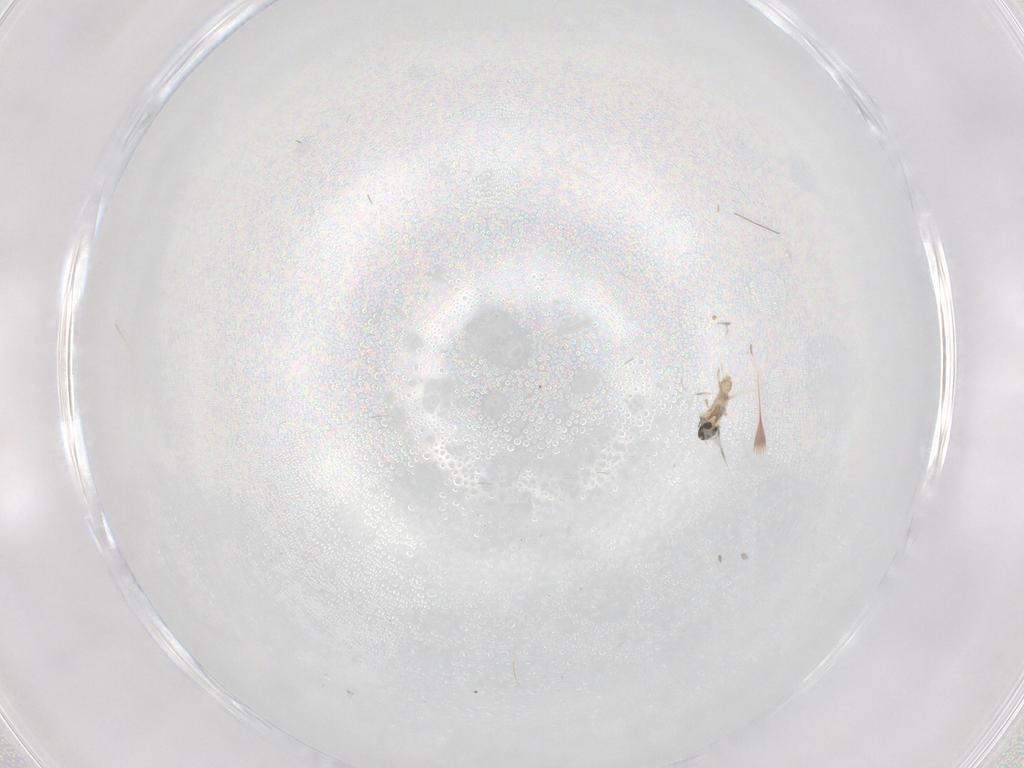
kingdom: Animalia
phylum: Arthropoda
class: Insecta
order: Diptera
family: Cecidomyiidae
